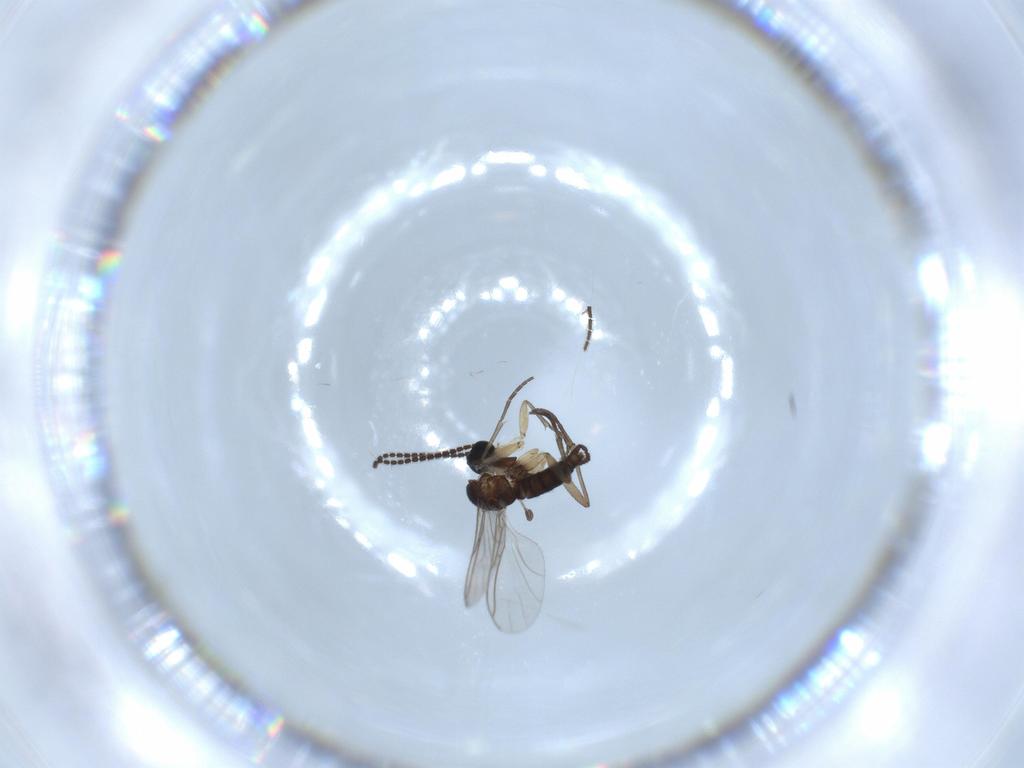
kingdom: Animalia
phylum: Arthropoda
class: Insecta
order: Diptera
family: Sciaridae
